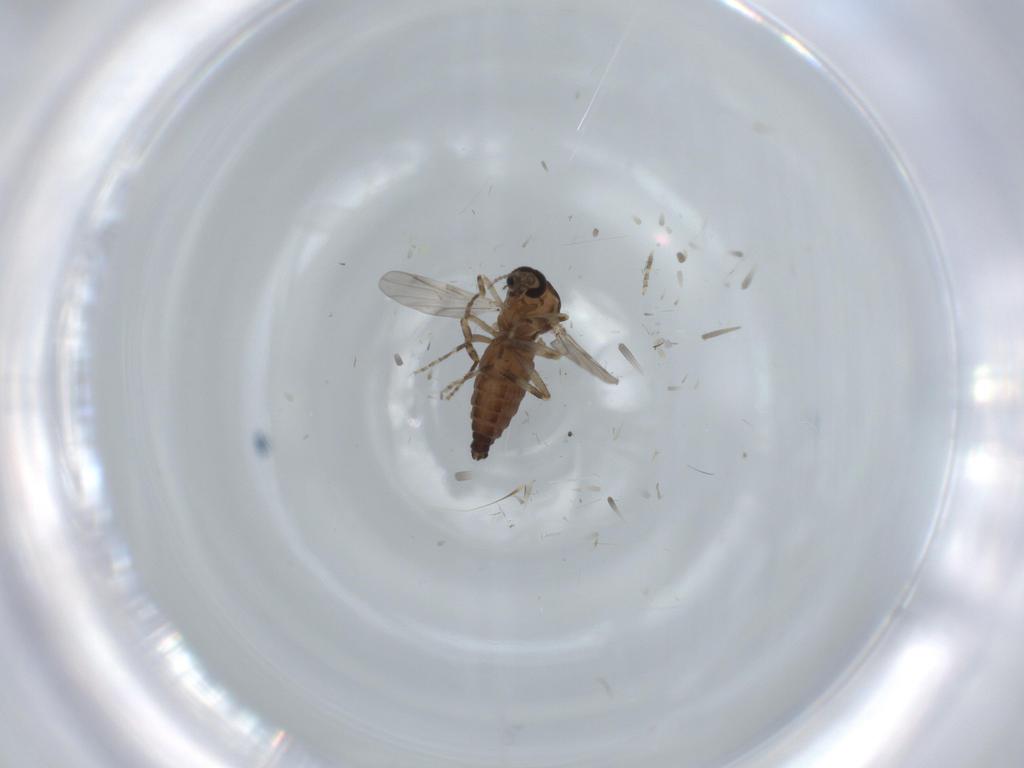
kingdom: Animalia
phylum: Arthropoda
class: Insecta
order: Diptera
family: Ceratopogonidae
